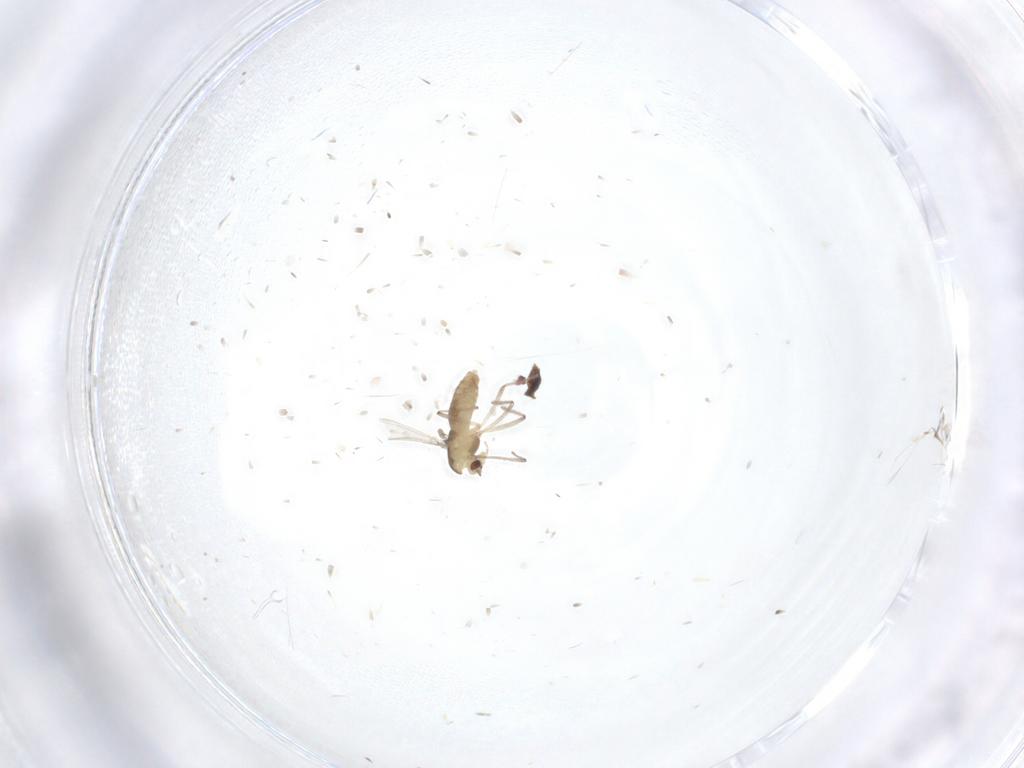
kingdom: Animalia
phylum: Arthropoda
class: Insecta
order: Diptera
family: Chironomidae
